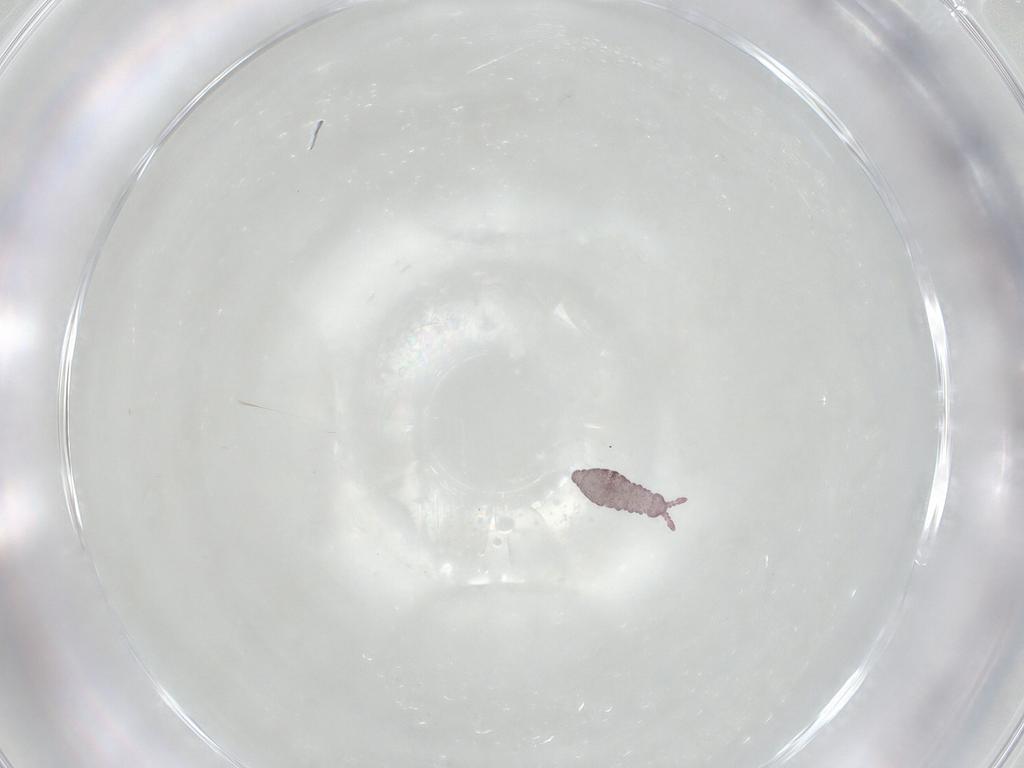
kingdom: Animalia
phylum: Arthropoda
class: Collembola
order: Poduromorpha
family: Hypogastruridae
